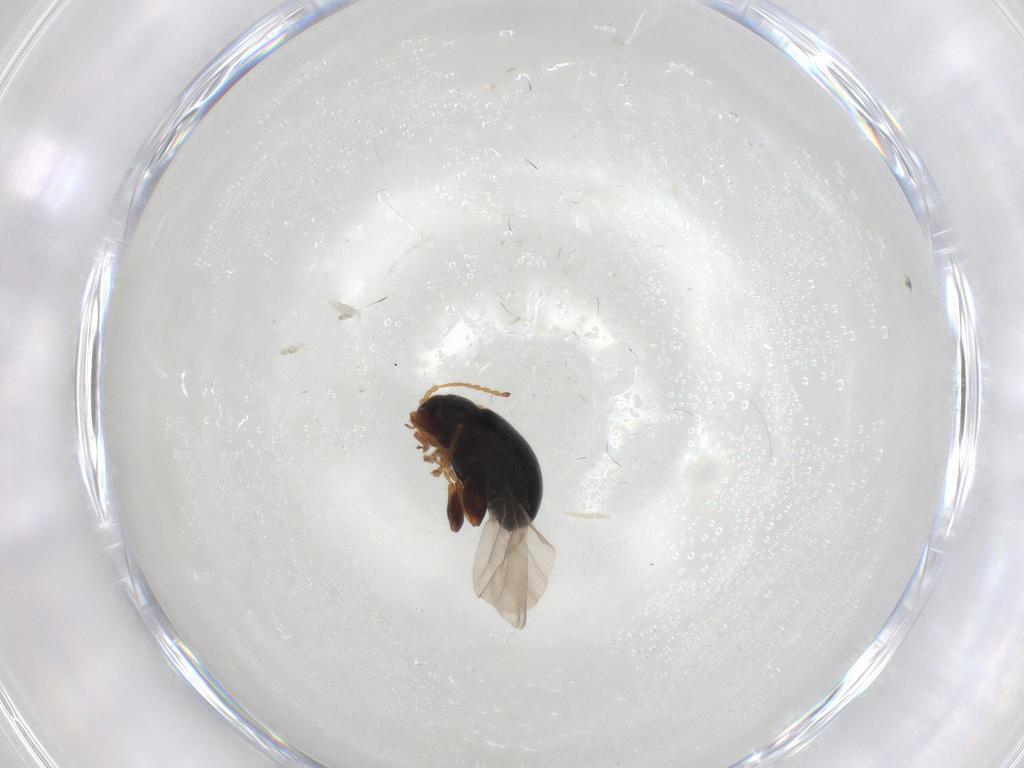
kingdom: Animalia
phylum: Arthropoda
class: Insecta
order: Coleoptera
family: Chrysomelidae
